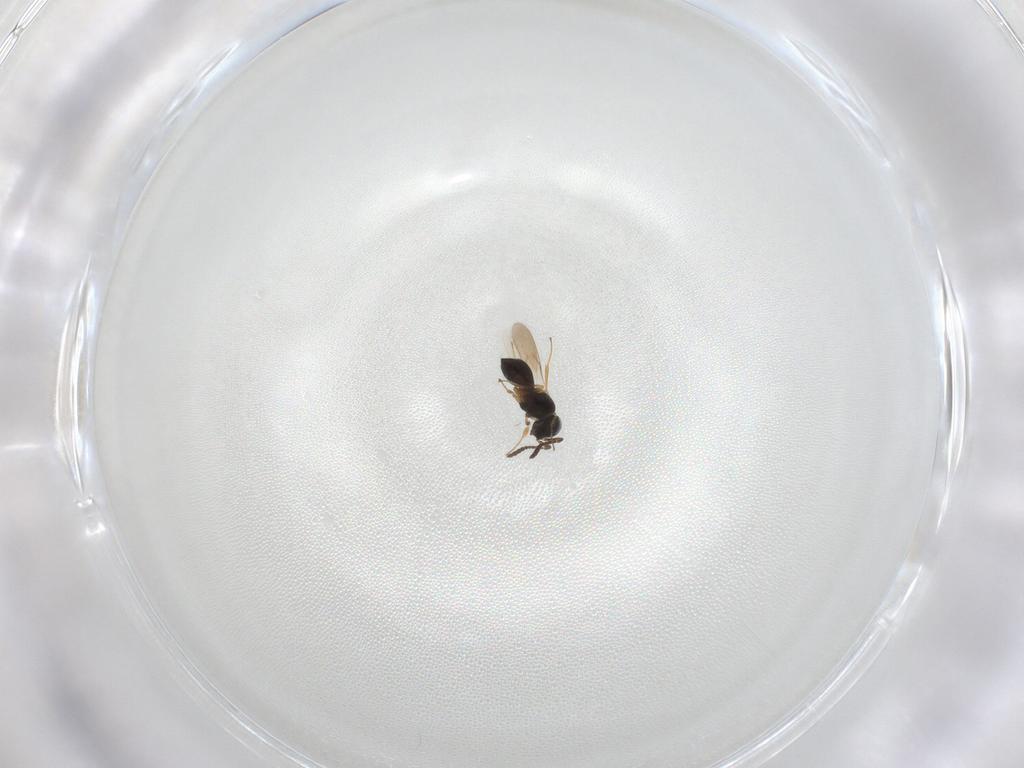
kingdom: Animalia
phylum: Arthropoda
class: Insecta
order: Hymenoptera
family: Scelionidae
